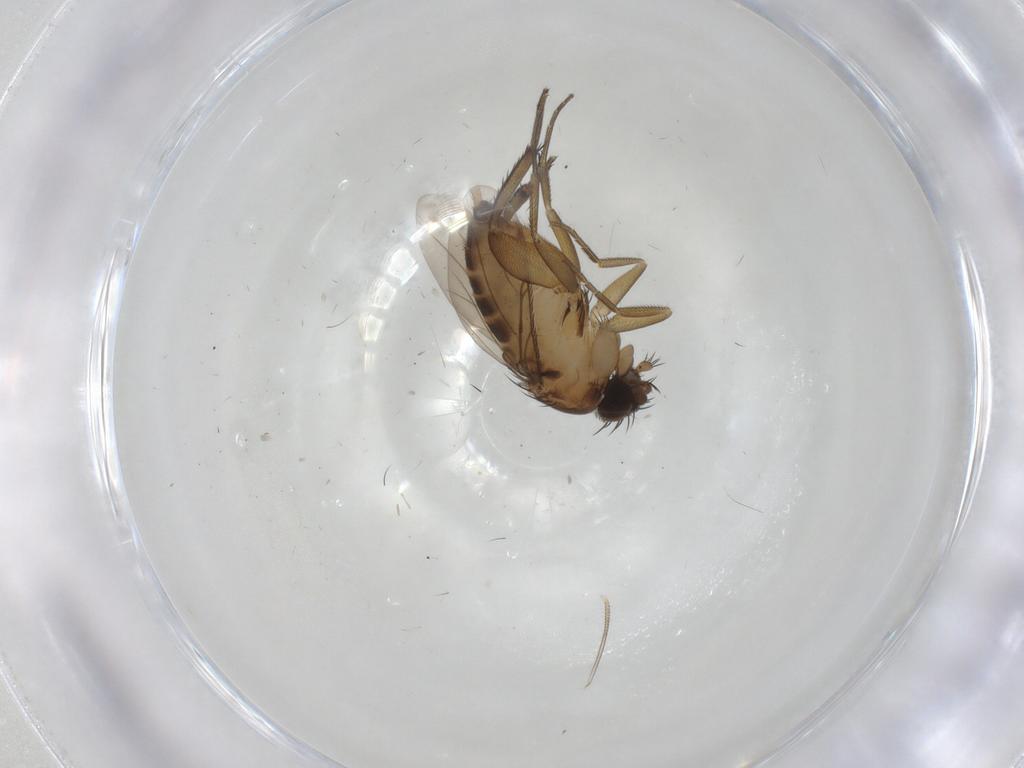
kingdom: Animalia
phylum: Arthropoda
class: Insecta
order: Diptera
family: Phoridae
